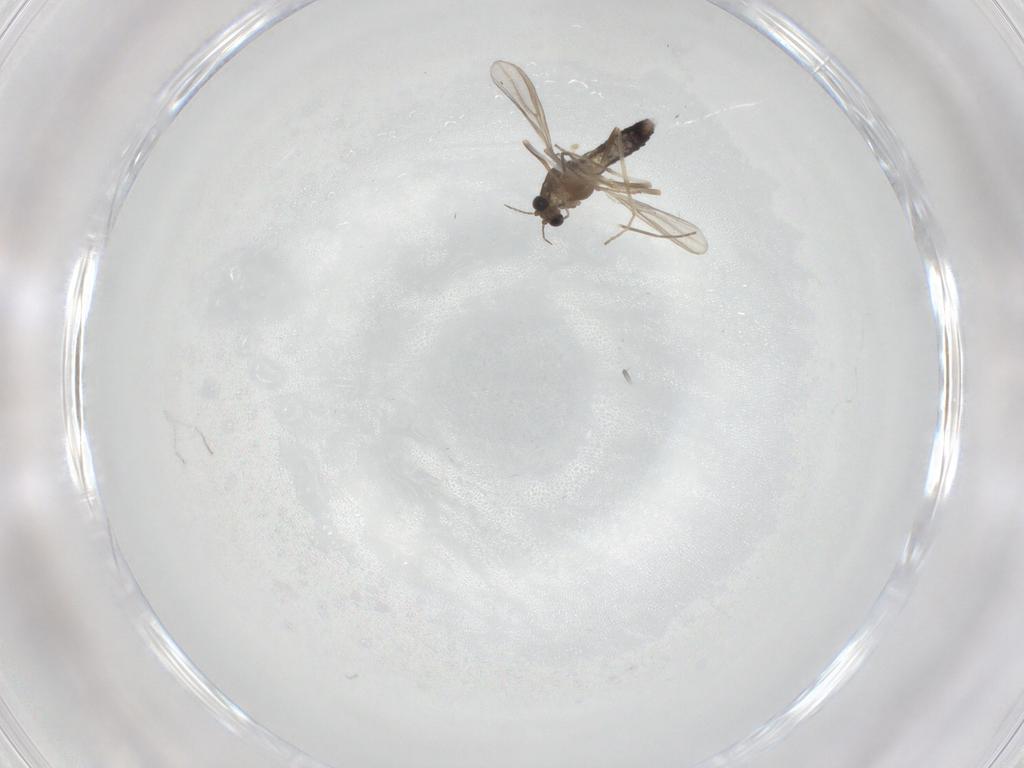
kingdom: Animalia
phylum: Arthropoda
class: Insecta
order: Diptera
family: Chironomidae
